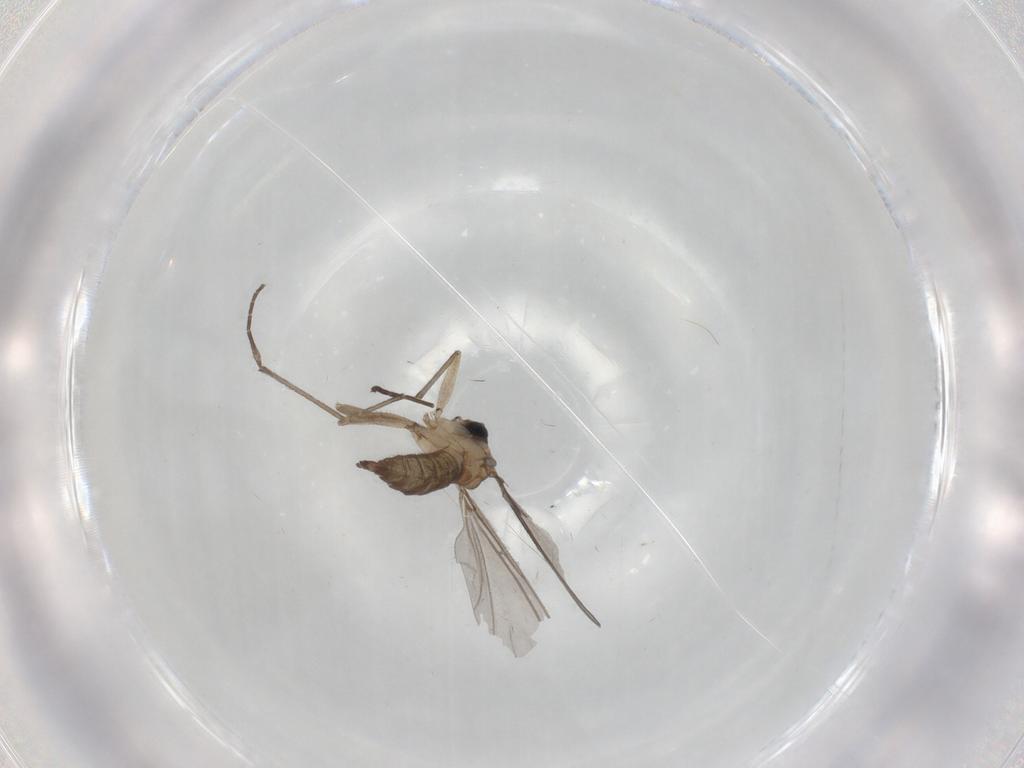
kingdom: Animalia
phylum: Arthropoda
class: Insecta
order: Diptera
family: Sciaridae
